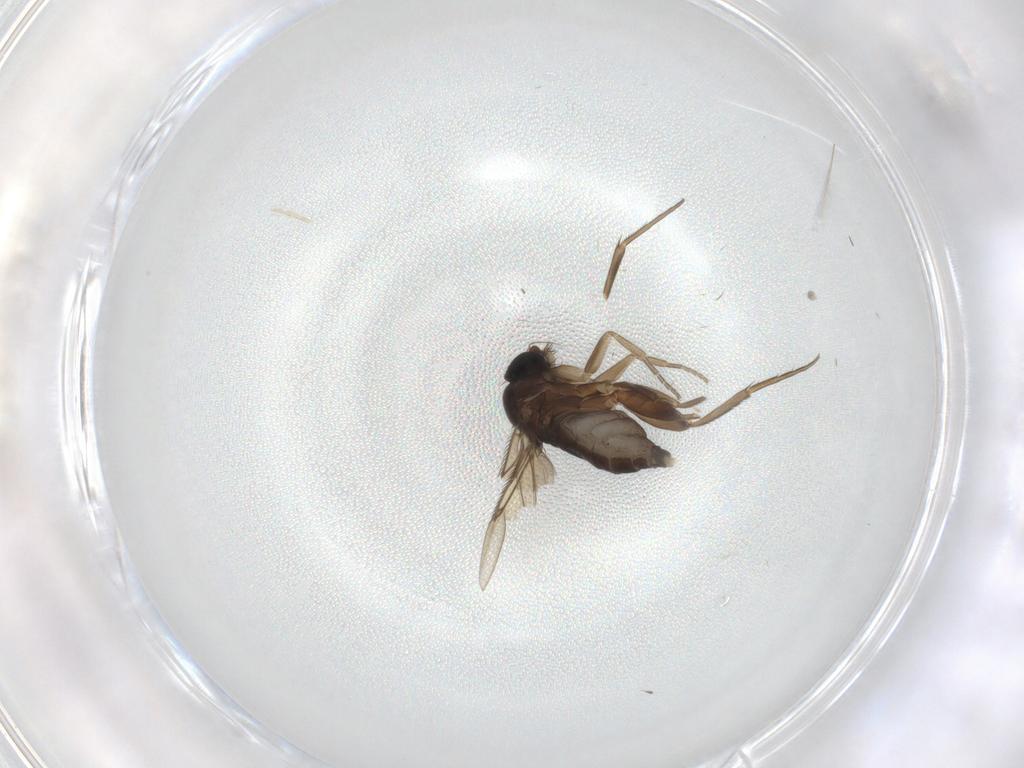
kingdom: Animalia
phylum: Arthropoda
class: Insecta
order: Diptera
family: Phoridae
